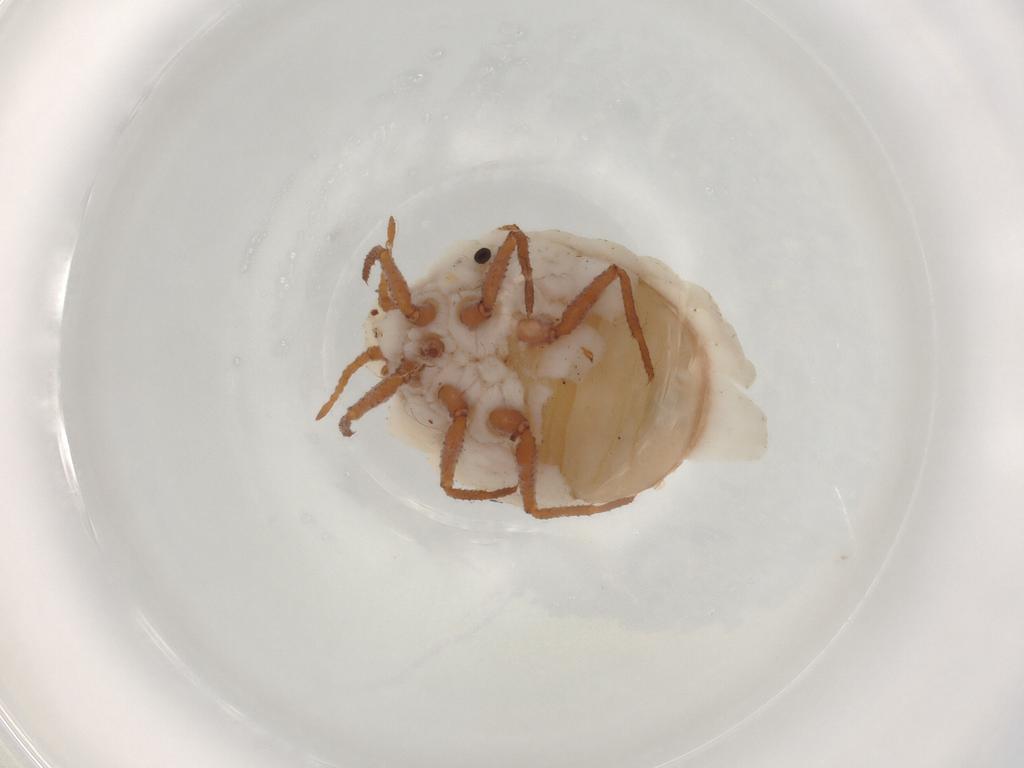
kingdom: Animalia
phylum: Arthropoda
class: Insecta
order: Hemiptera
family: Ortheziidae
